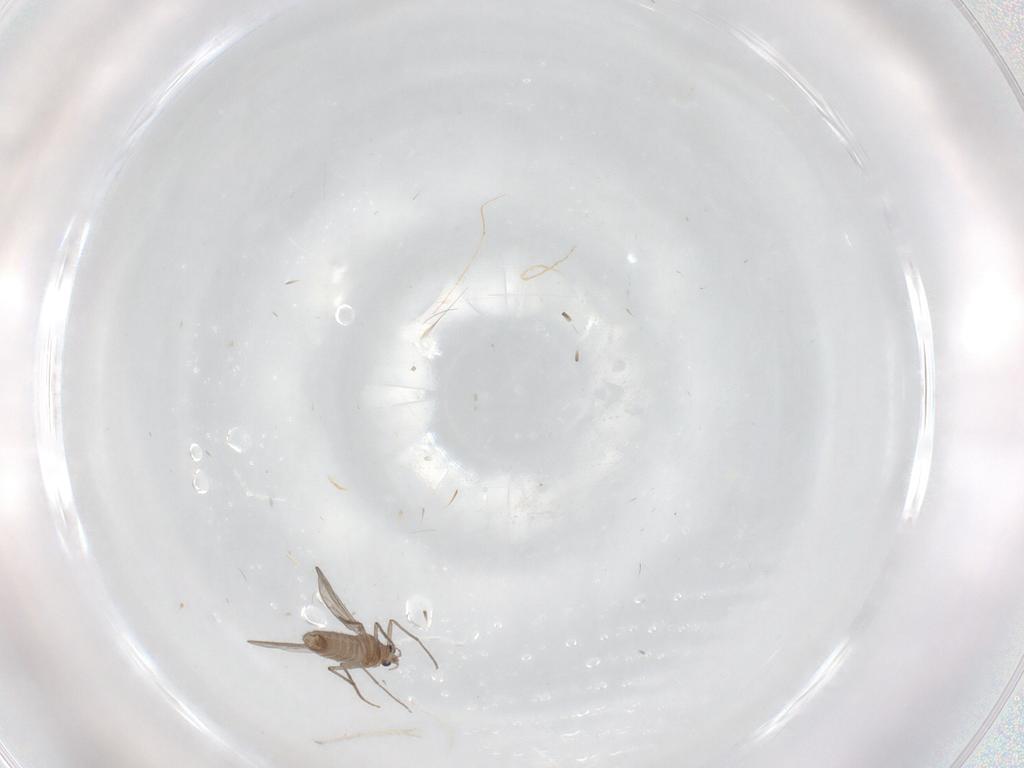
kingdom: Animalia
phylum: Arthropoda
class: Insecta
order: Diptera
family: Chironomidae
